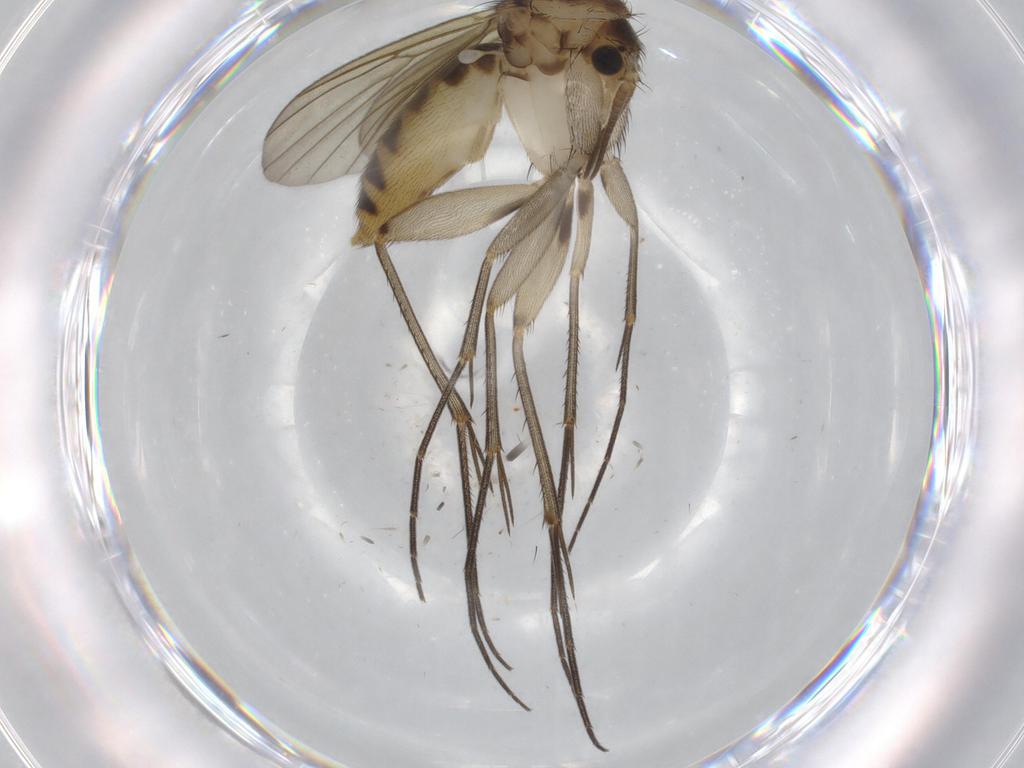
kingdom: Animalia
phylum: Arthropoda
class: Insecta
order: Diptera
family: Mycetophilidae
